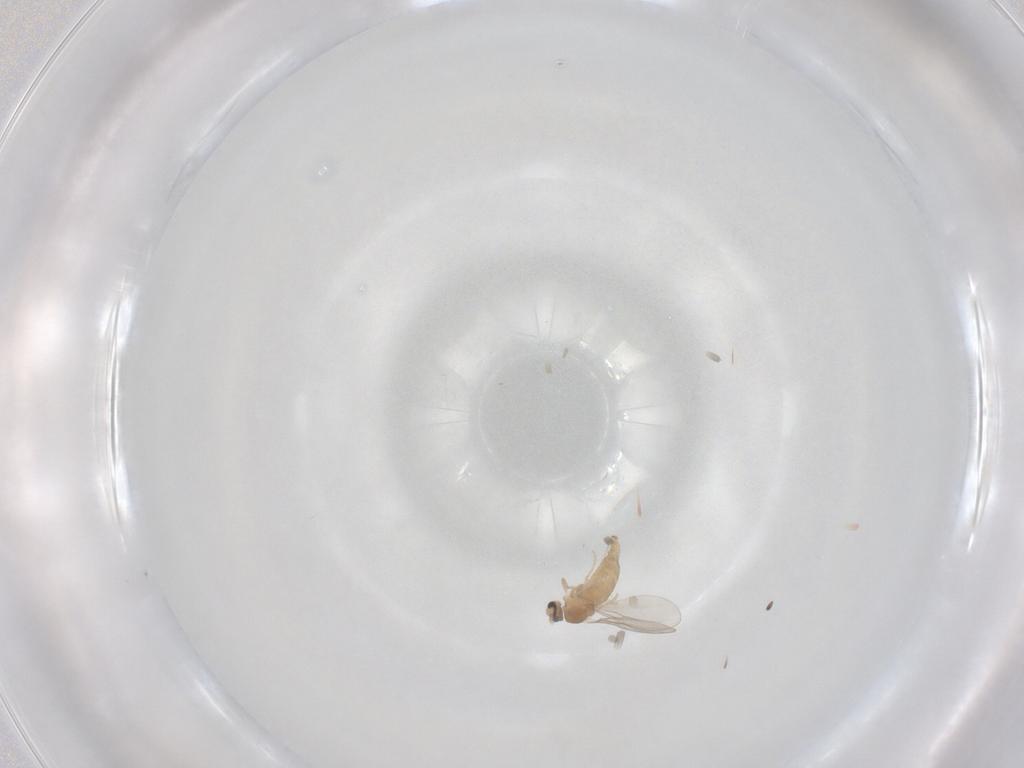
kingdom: Animalia
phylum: Arthropoda
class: Insecta
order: Diptera
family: Cecidomyiidae
